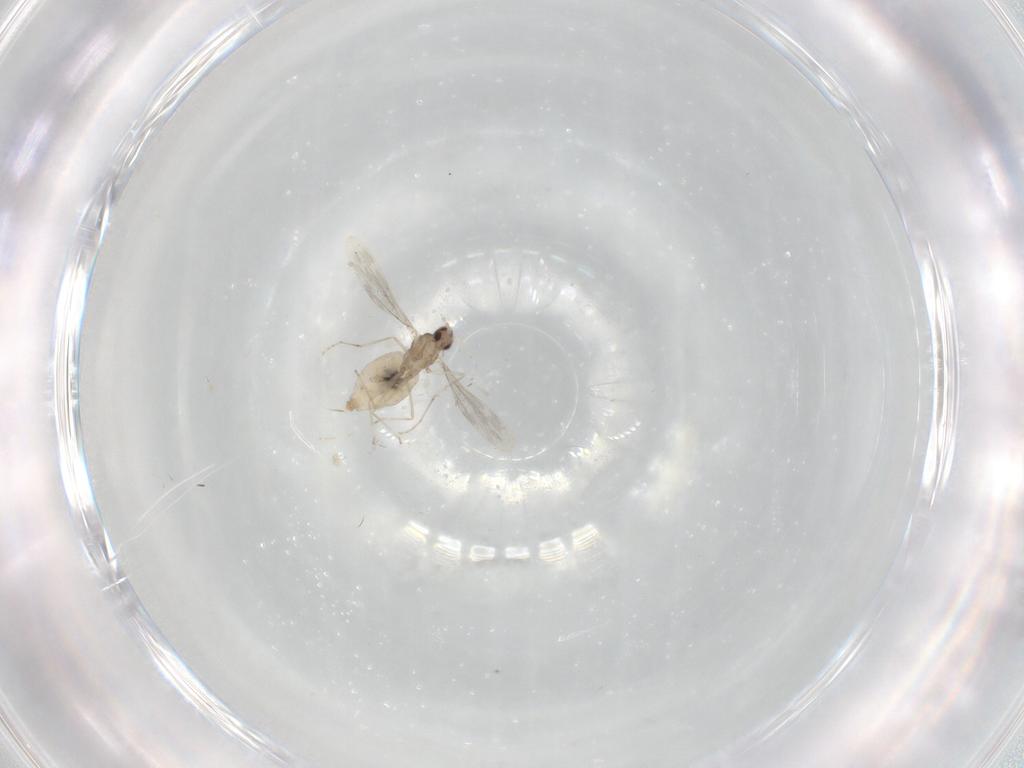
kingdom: Animalia
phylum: Arthropoda
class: Insecta
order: Diptera
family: Cecidomyiidae
